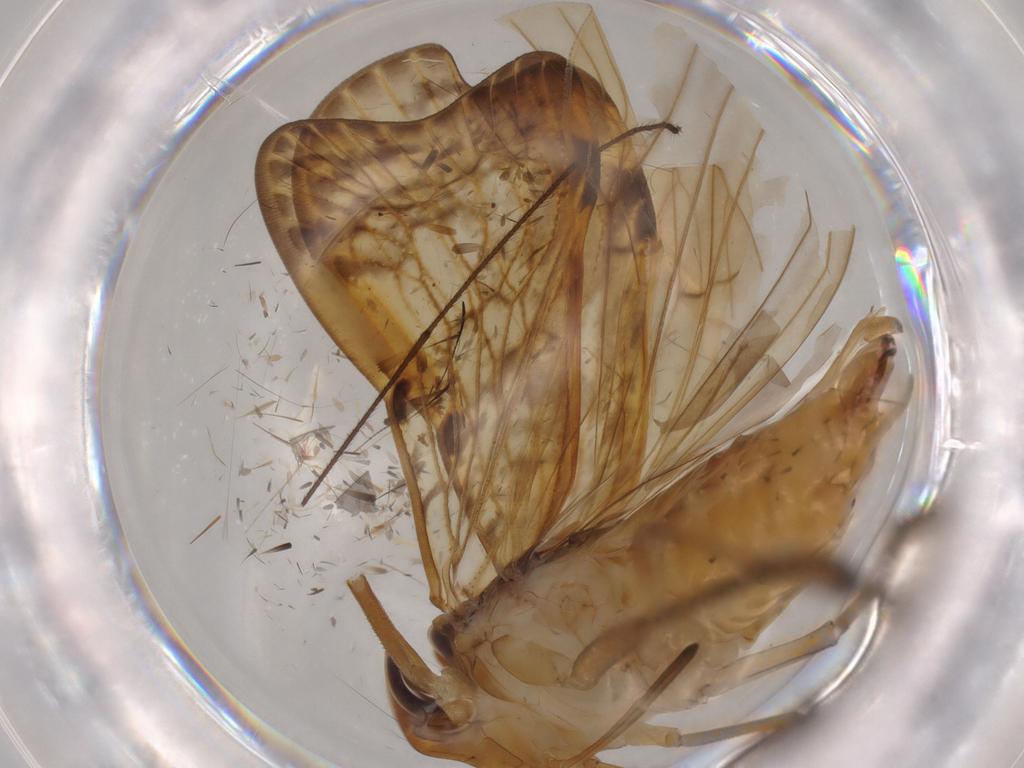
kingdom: Animalia
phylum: Arthropoda
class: Insecta
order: Hemiptera
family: Cixiidae
